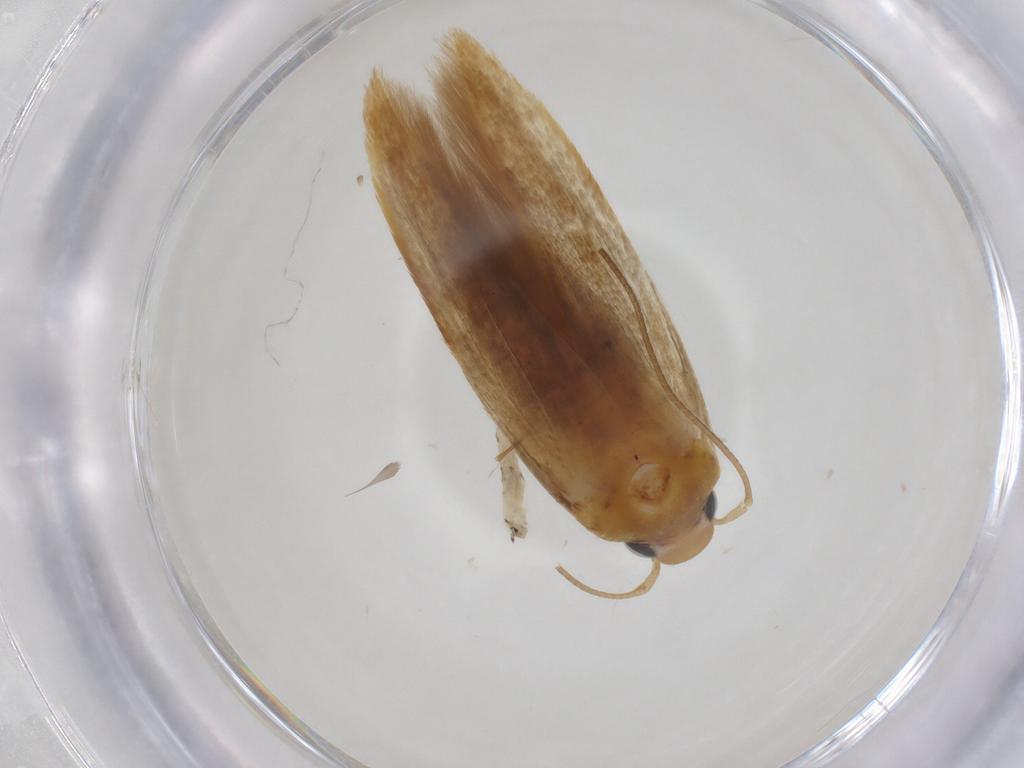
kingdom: Animalia
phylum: Arthropoda
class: Insecta
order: Lepidoptera
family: Stathmopodidae
